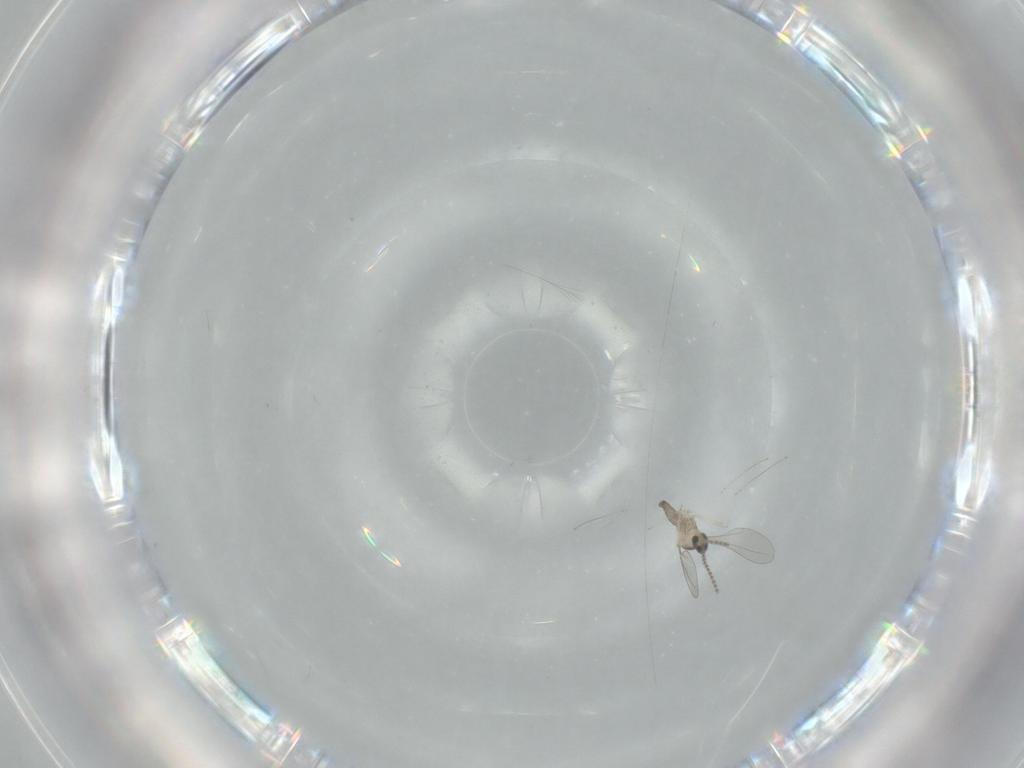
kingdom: Animalia
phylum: Arthropoda
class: Insecta
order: Diptera
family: Cecidomyiidae
